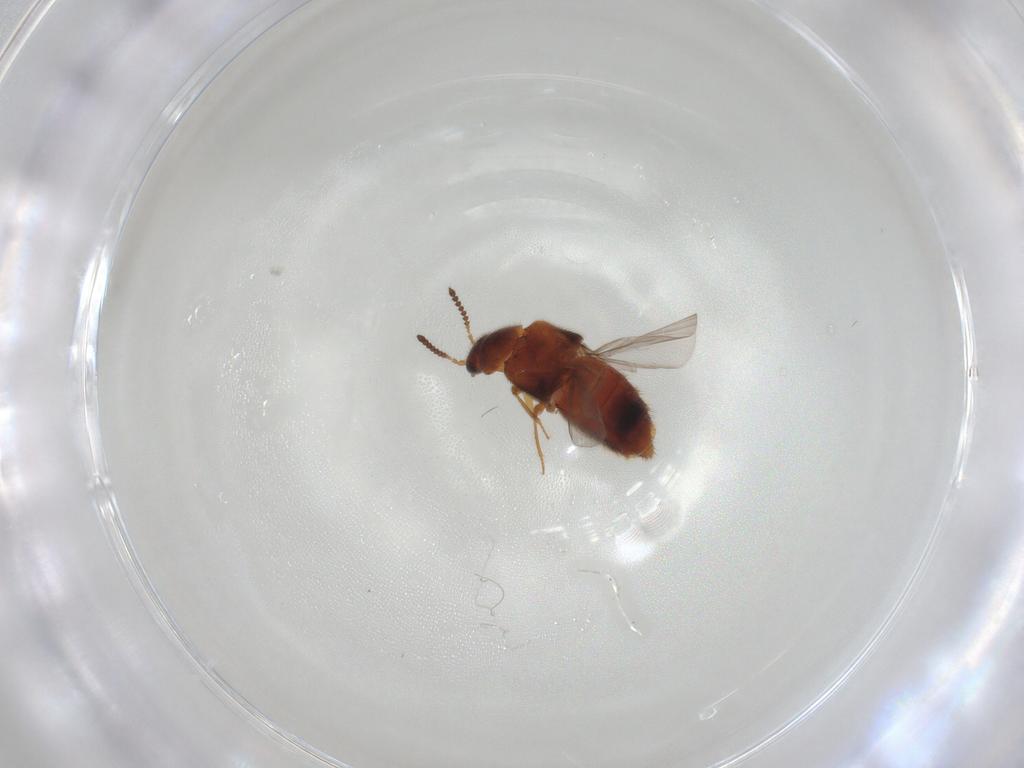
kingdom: Animalia
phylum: Arthropoda
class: Insecta
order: Coleoptera
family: Staphylinidae
